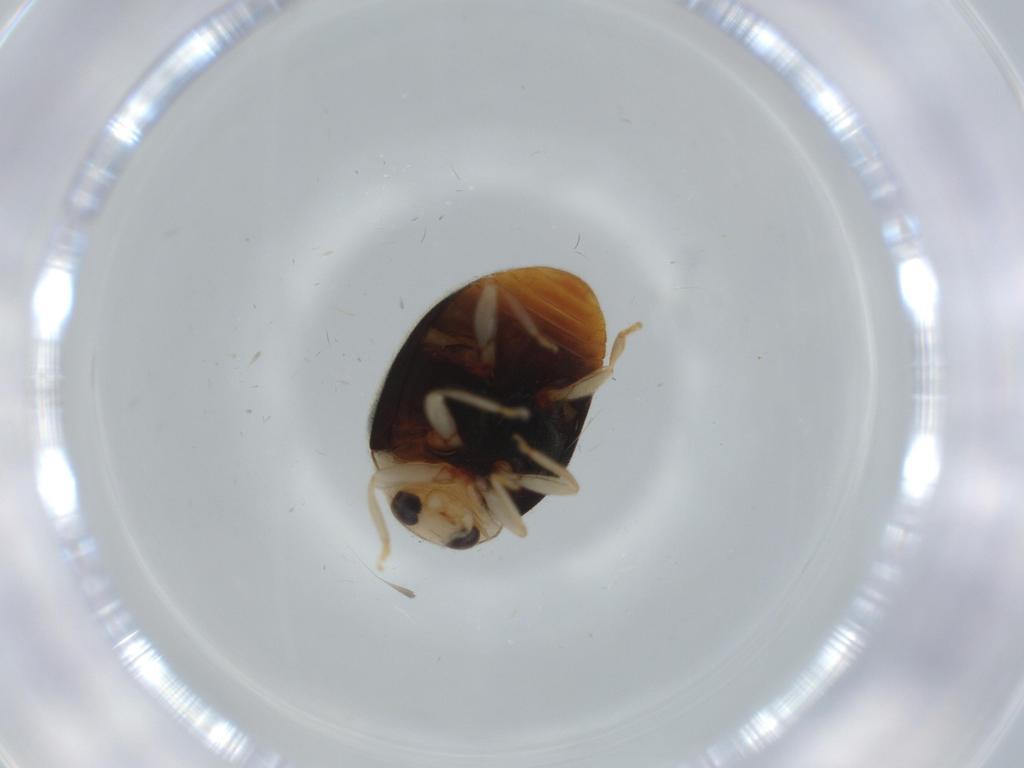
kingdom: Animalia
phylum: Arthropoda
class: Insecta
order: Coleoptera
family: Coccinellidae
